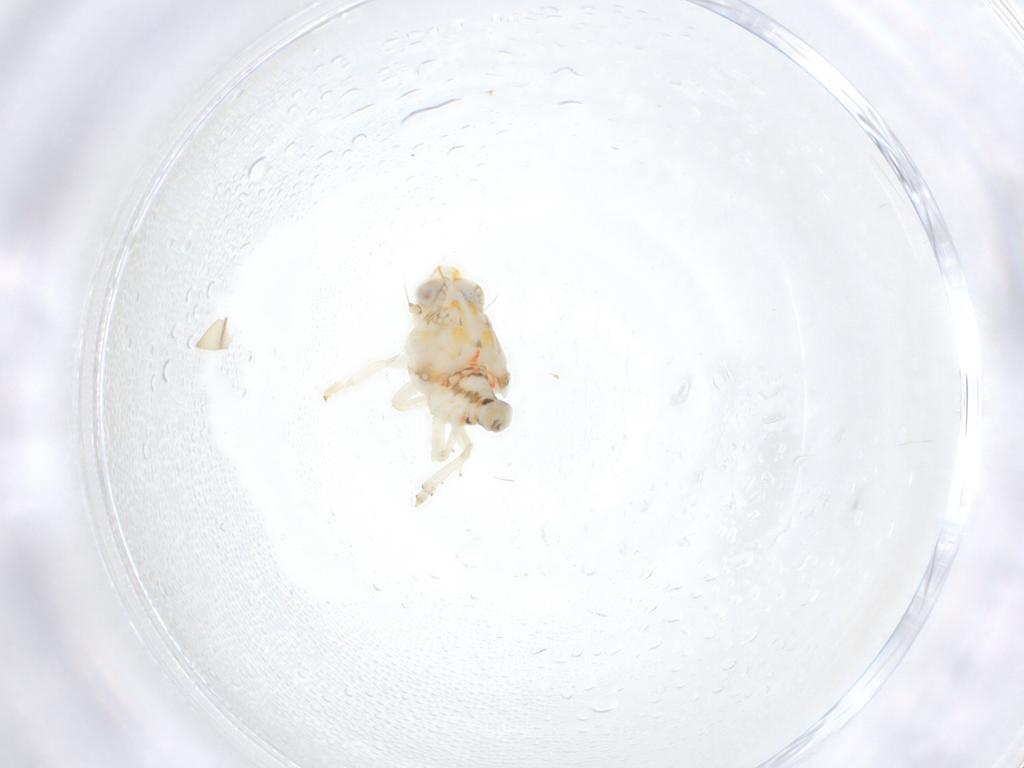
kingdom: Animalia
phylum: Arthropoda
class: Insecta
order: Hemiptera
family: Nogodinidae
